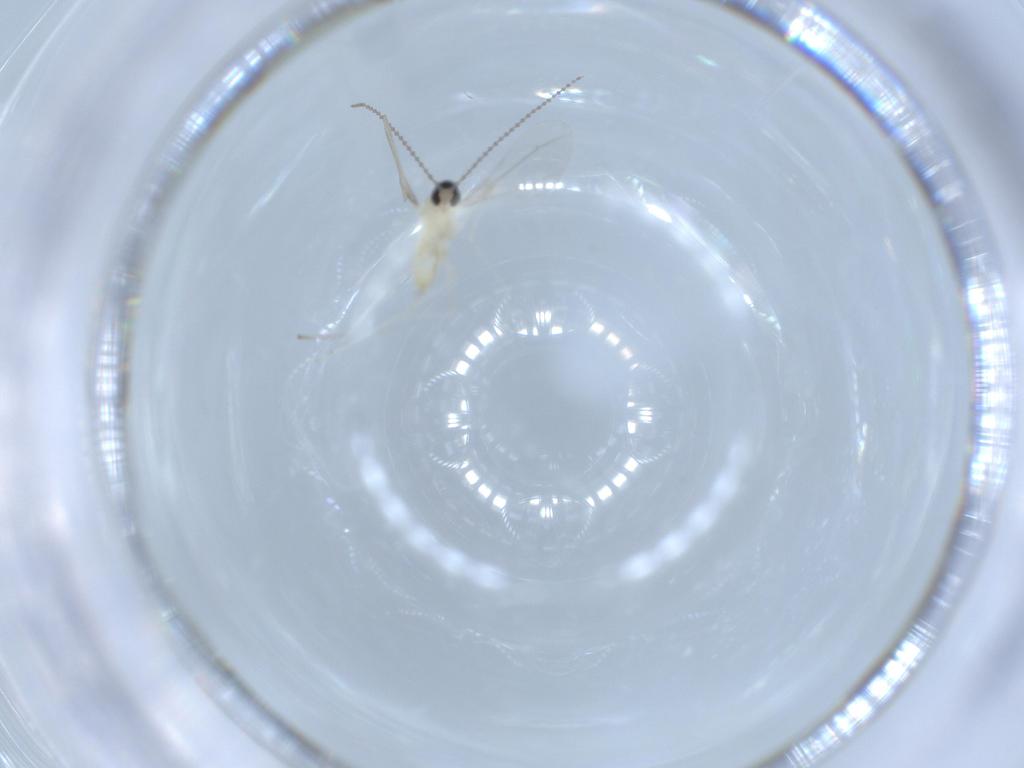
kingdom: Animalia
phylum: Arthropoda
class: Insecta
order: Diptera
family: Cecidomyiidae
